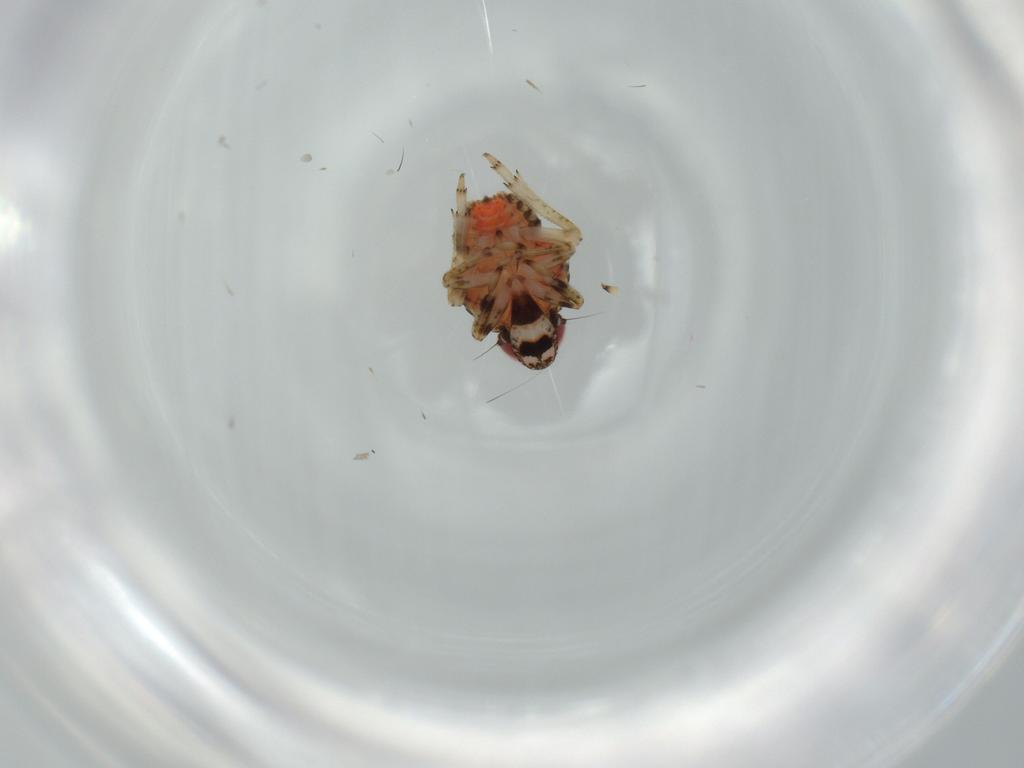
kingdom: Animalia
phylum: Arthropoda
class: Insecta
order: Hemiptera
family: Issidae
